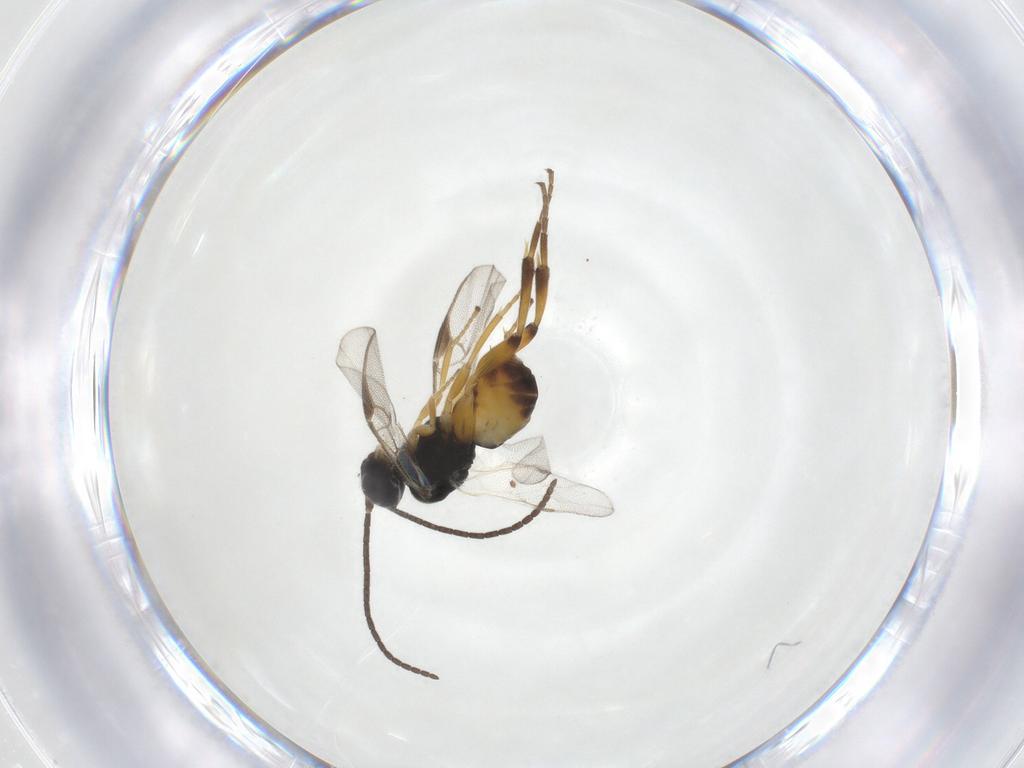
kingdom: Animalia
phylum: Arthropoda
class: Insecta
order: Hymenoptera
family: Braconidae
